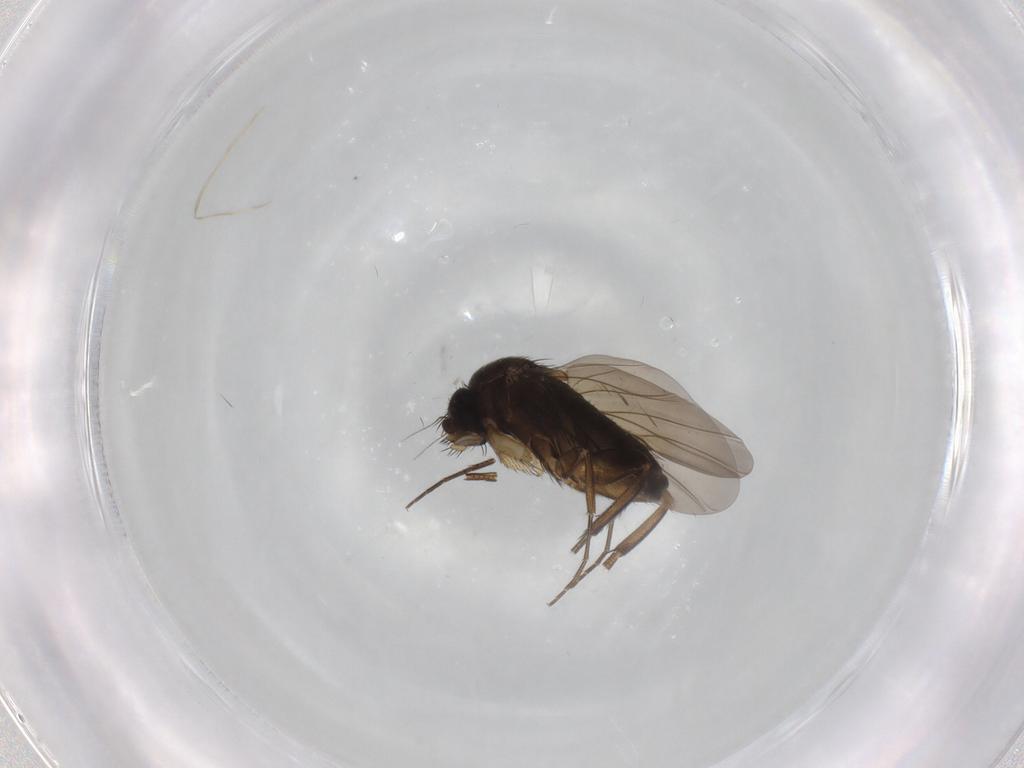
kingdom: Animalia
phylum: Arthropoda
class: Insecta
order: Diptera
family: Phoridae
